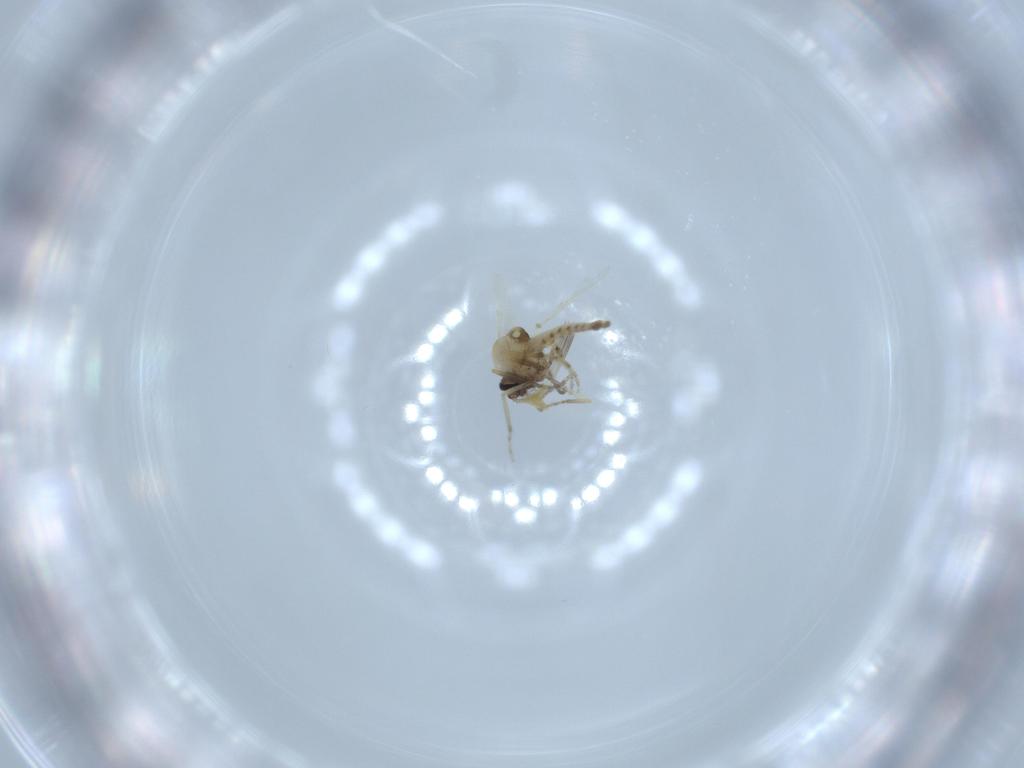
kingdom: Animalia
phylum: Arthropoda
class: Insecta
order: Diptera
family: Ceratopogonidae
